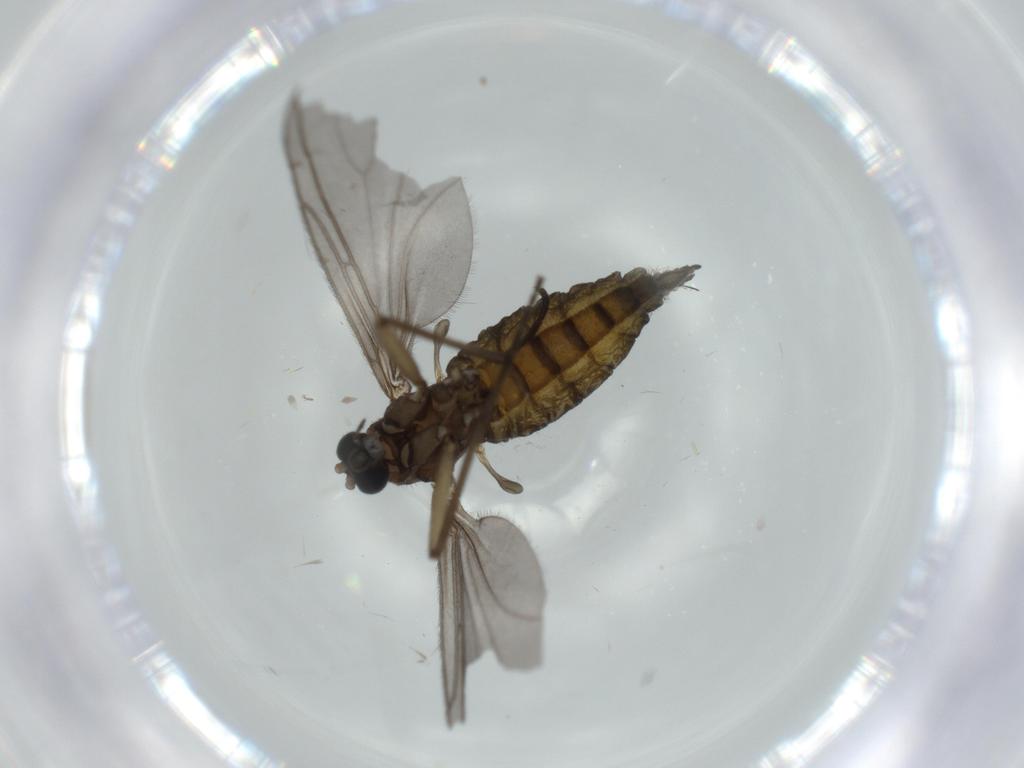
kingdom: Animalia
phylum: Arthropoda
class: Insecta
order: Diptera
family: Sciaridae
